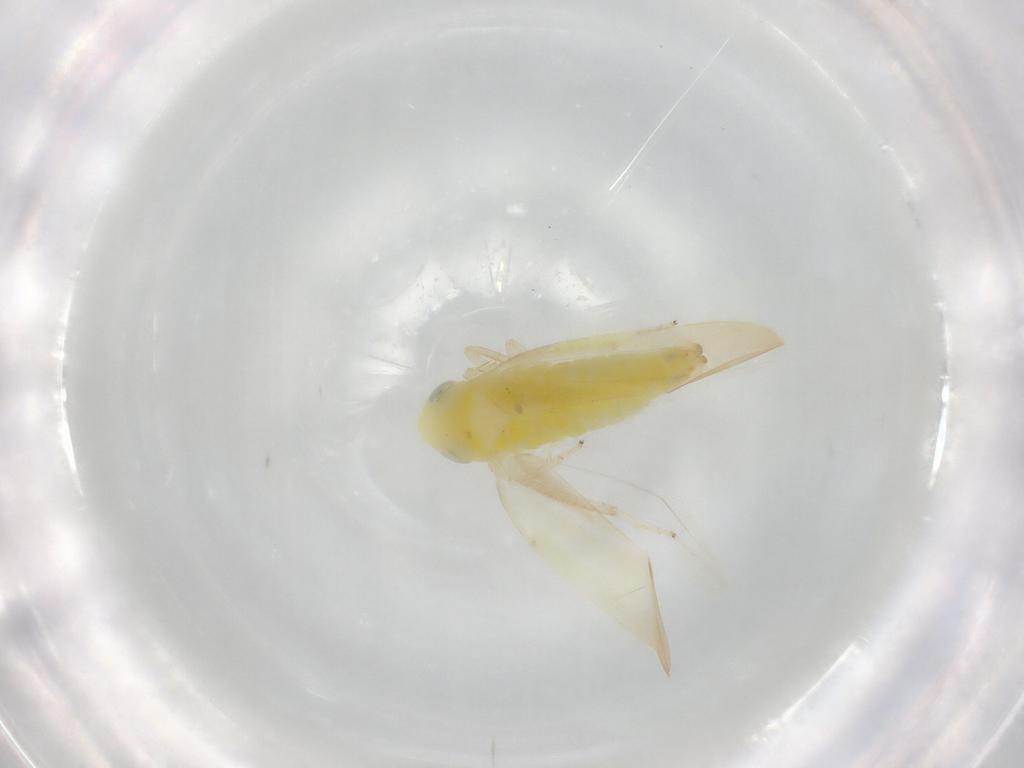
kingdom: Animalia
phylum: Arthropoda
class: Insecta
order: Hemiptera
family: Cicadellidae
